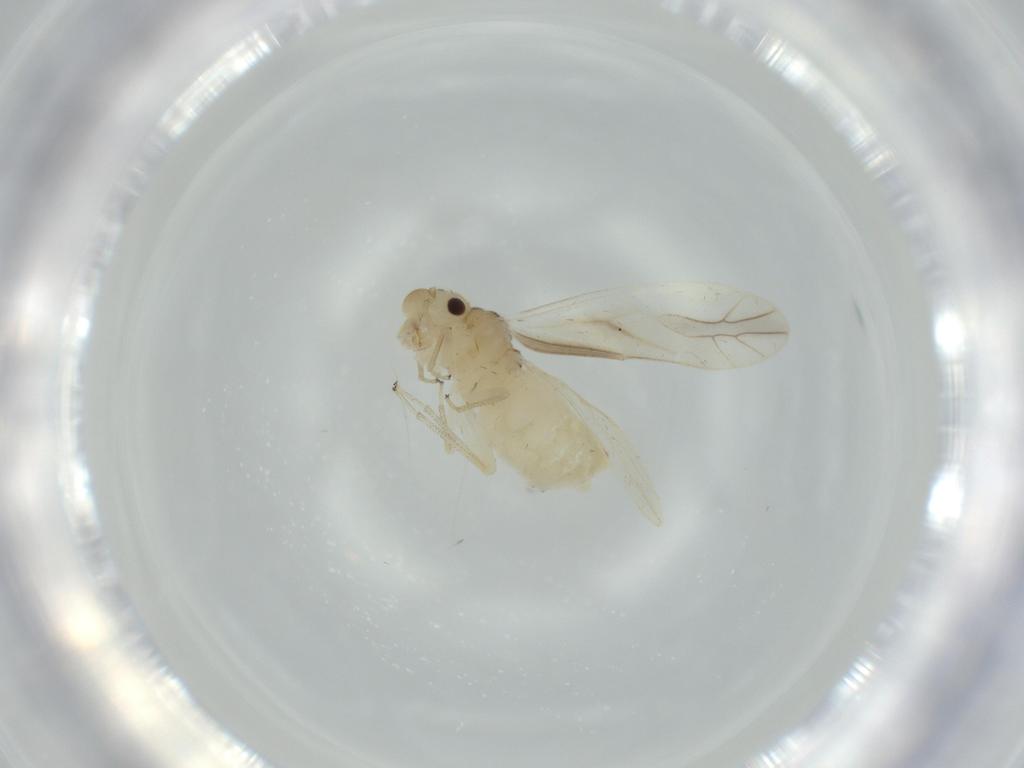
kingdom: Animalia
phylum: Arthropoda
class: Insecta
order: Psocodea
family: Caeciliusidae
